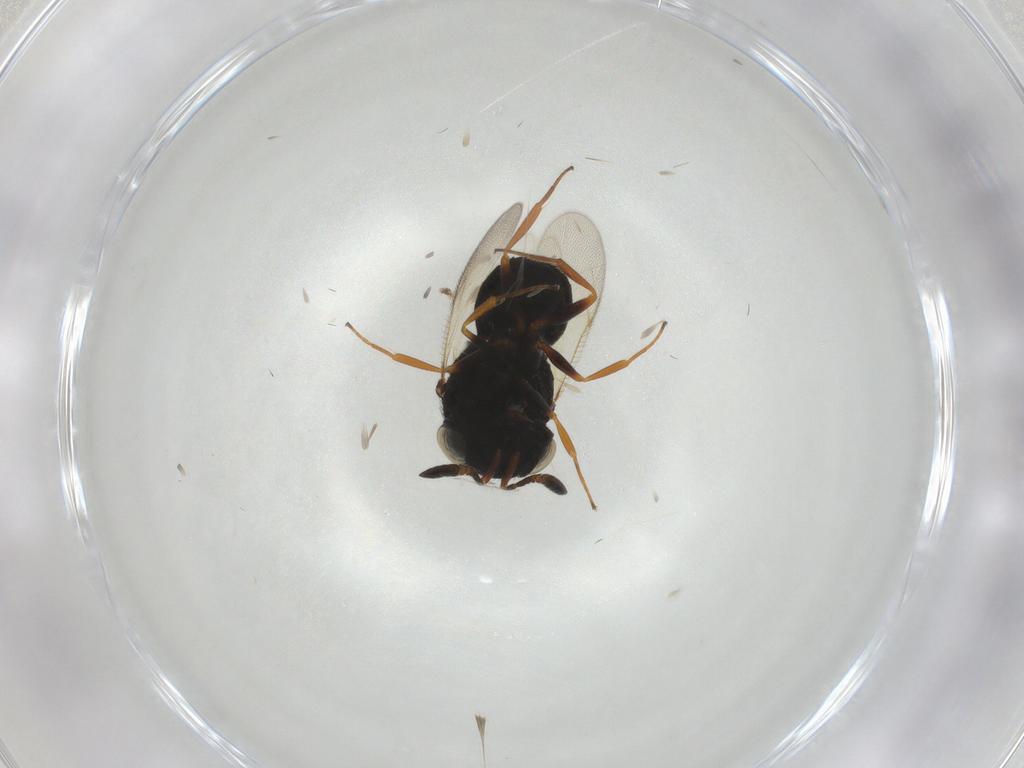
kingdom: Animalia
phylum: Arthropoda
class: Insecta
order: Hymenoptera
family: Scelionidae
